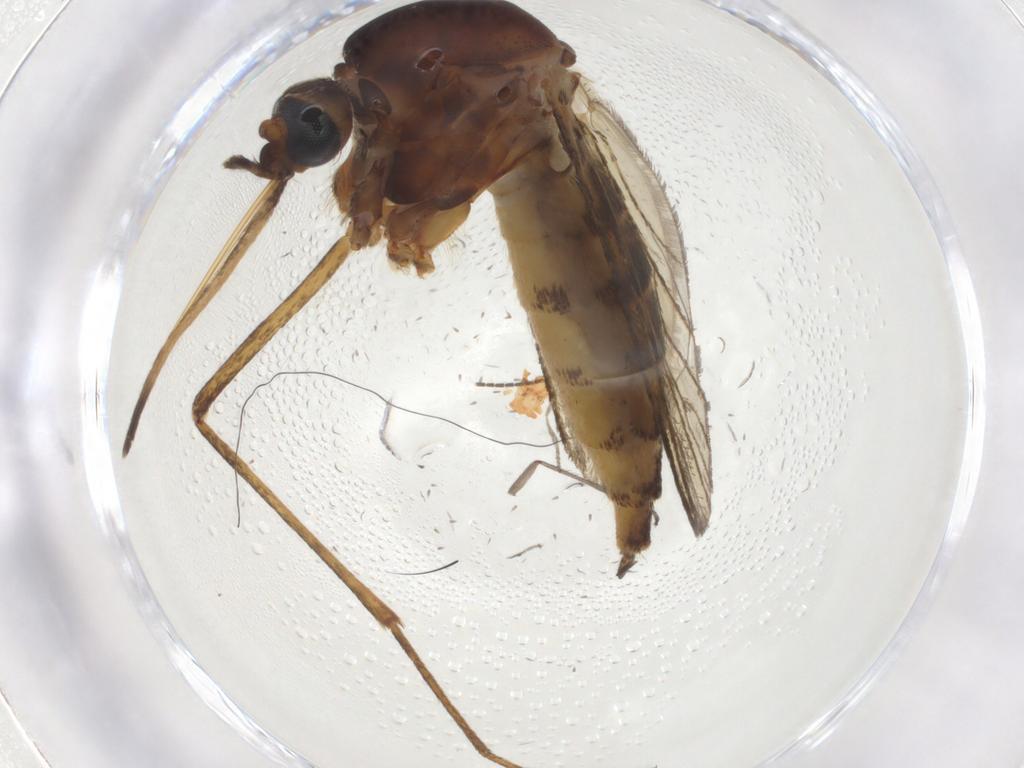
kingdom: Animalia
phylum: Arthropoda
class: Insecta
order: Diptera
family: Culicidae
